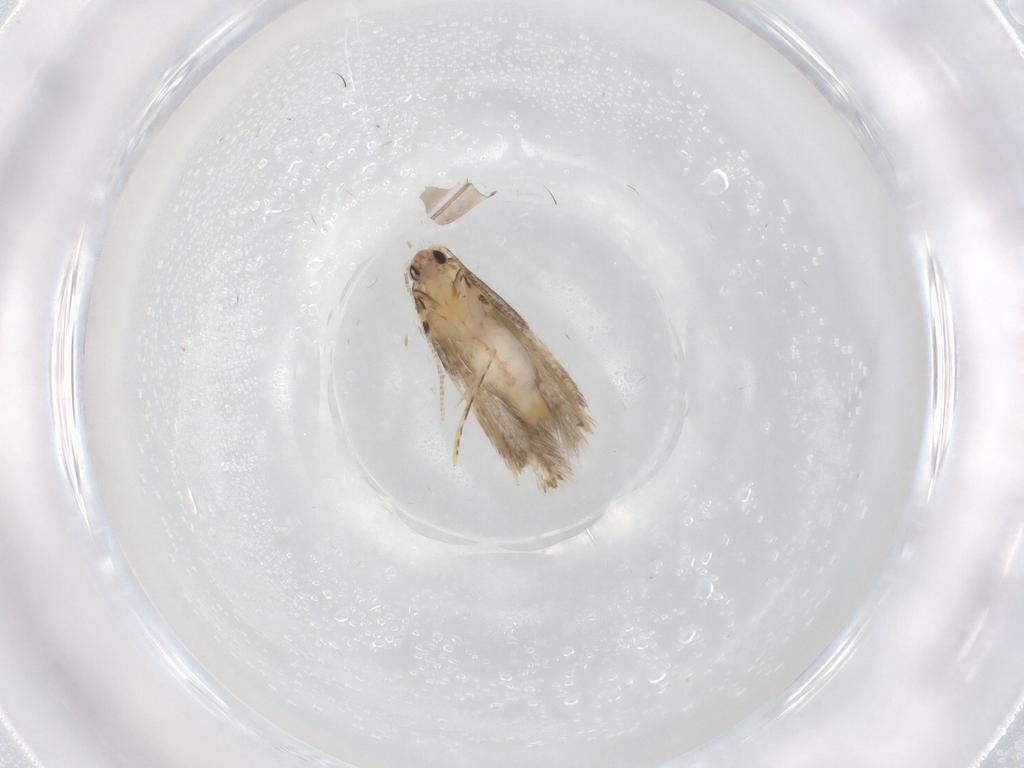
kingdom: Animalia
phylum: Arthropoda
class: Insecta
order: Lepidoptera
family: Tineidae
